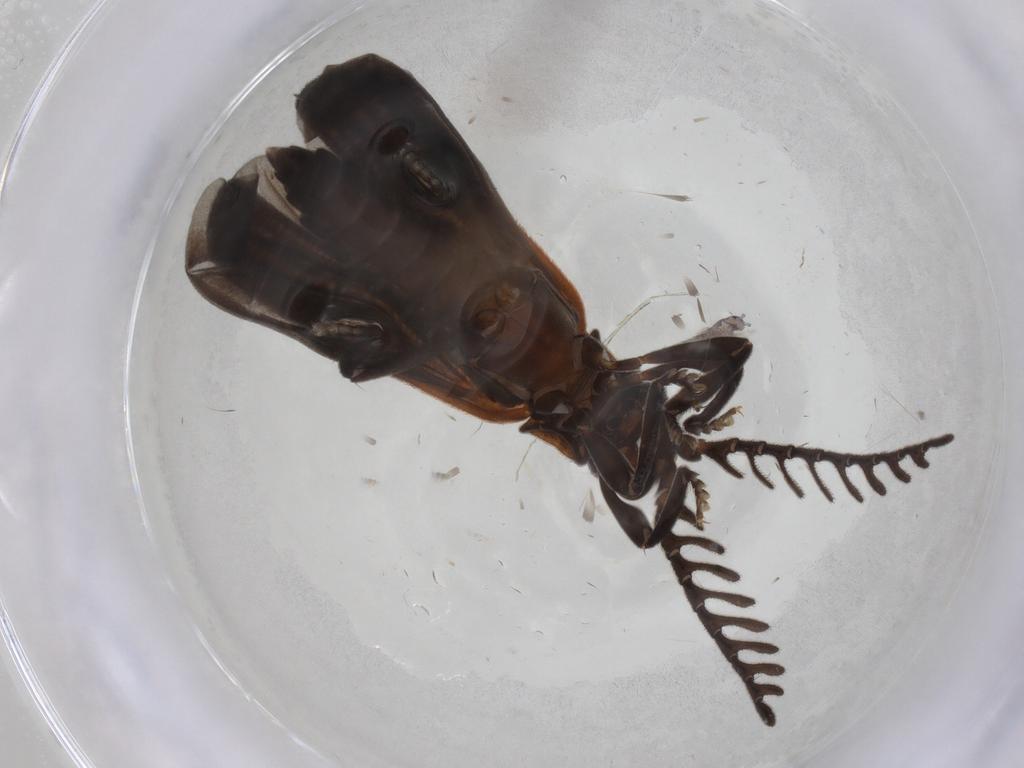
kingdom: Animalia
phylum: Arthropoda
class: Insecta
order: Coleoptera
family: Lycidae
